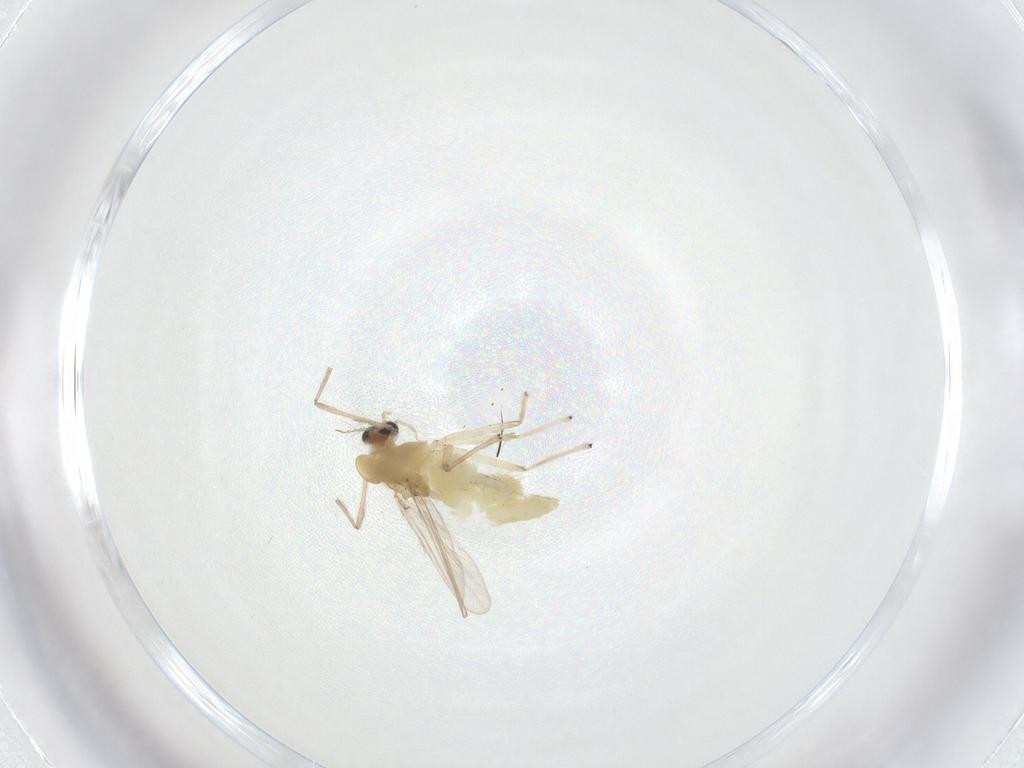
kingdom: Animalia
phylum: Arthropoda
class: Insecta
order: Diptera
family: Chironomidae
